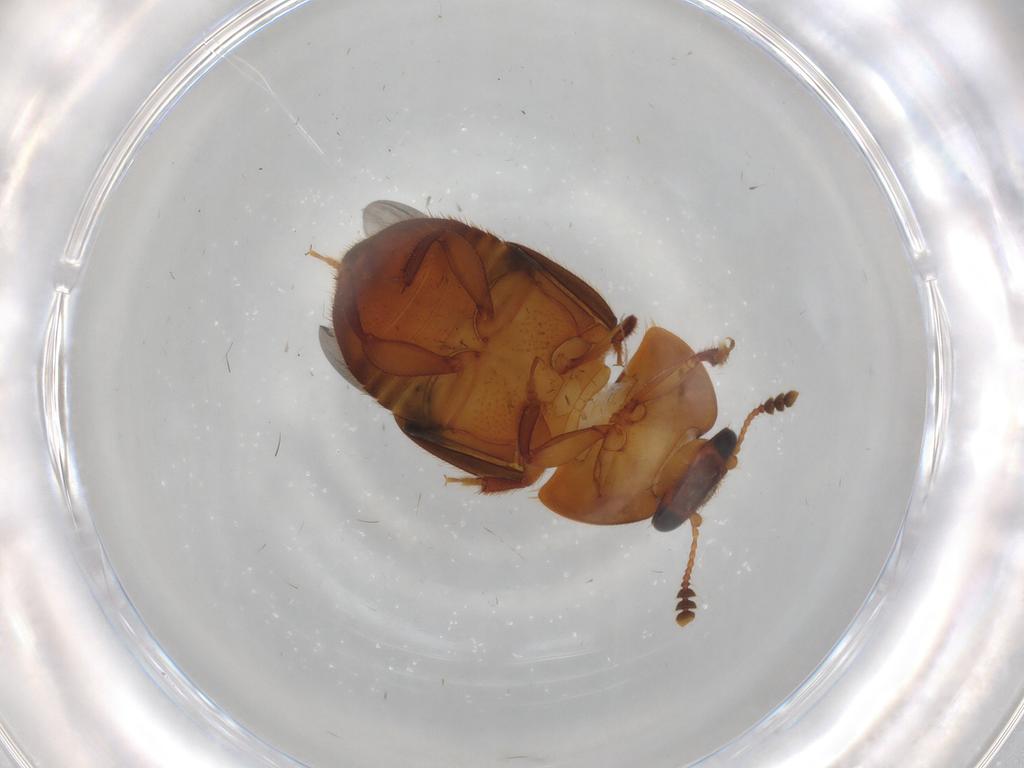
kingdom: Animalia
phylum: Arthropoda
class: Insecta
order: Coleoptera
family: Nitidulidae
